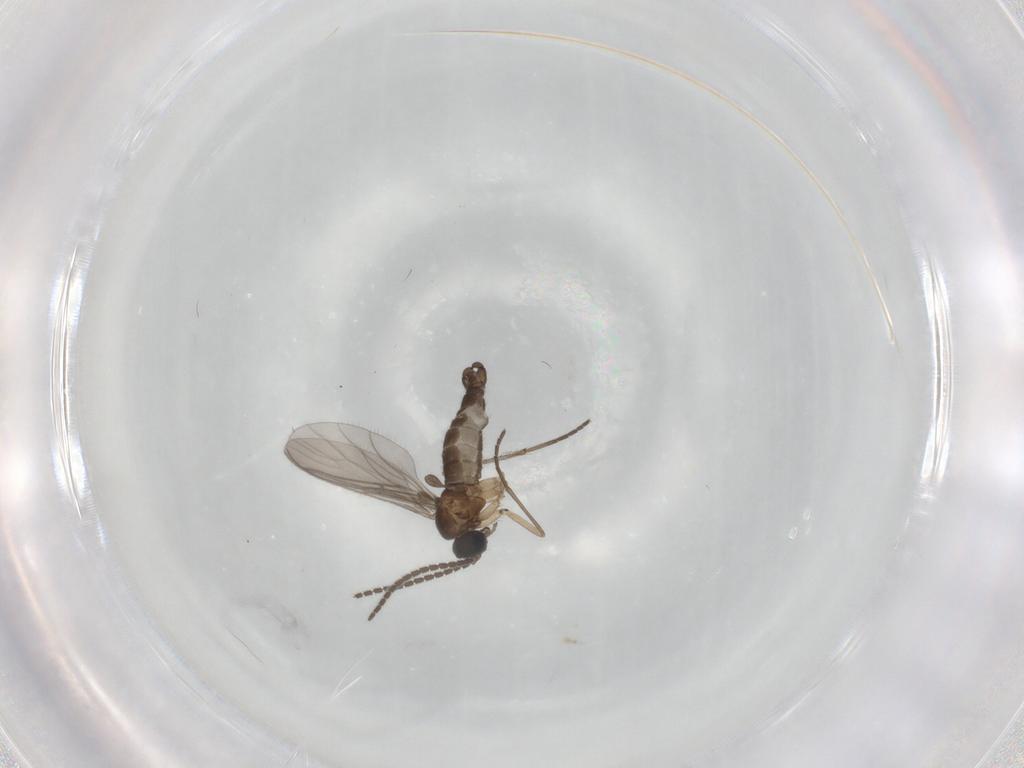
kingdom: Animalia
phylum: Arthropoda
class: Insecta
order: Diptera
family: Sciaridae
